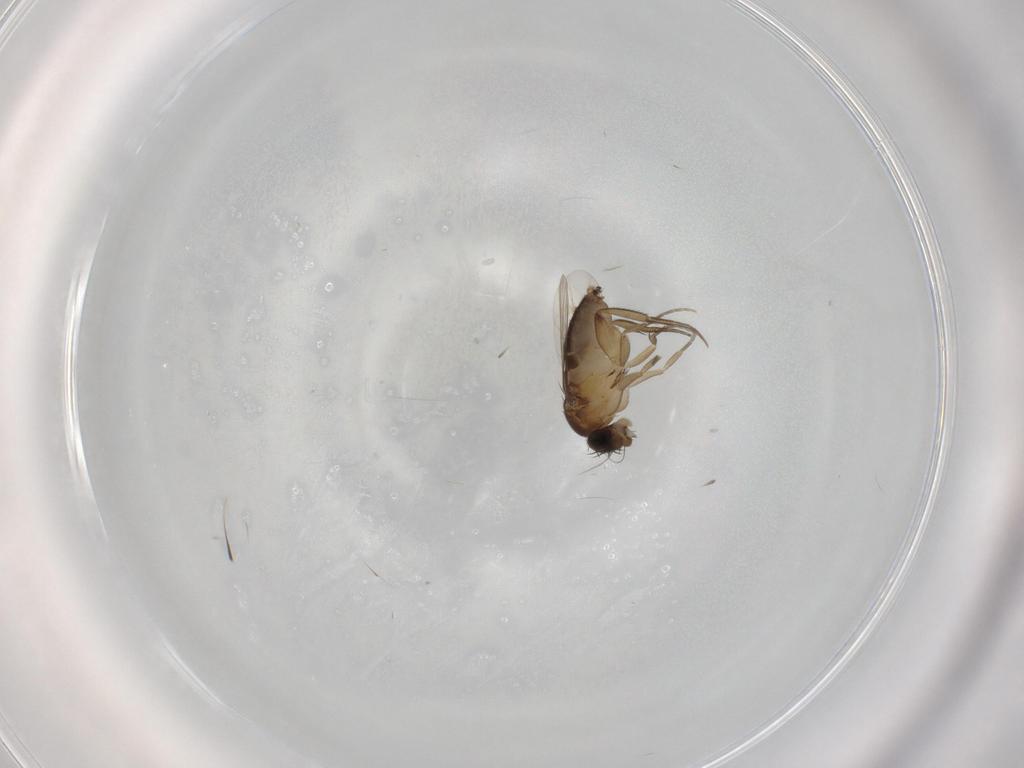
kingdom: Animalia
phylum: Arthropoda
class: Insecta
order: Diptera
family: Phoridae
